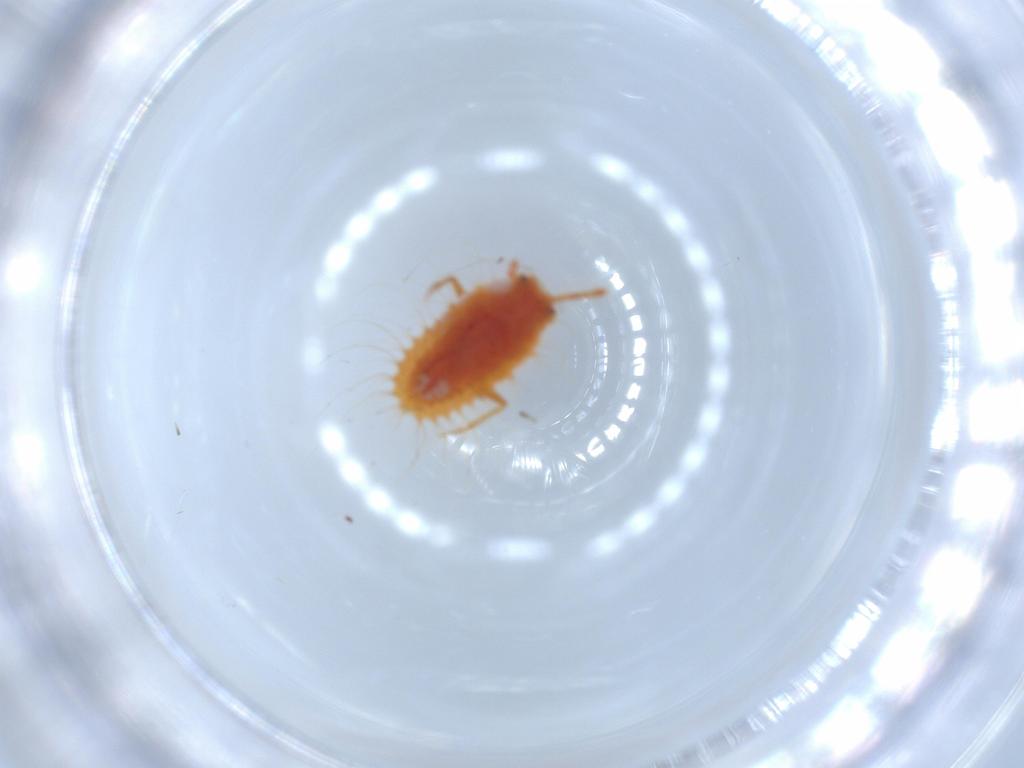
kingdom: Animalia
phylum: Arthropoda
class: Insecta
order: Hemiptera
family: Coccoidea_incertae_sedis
